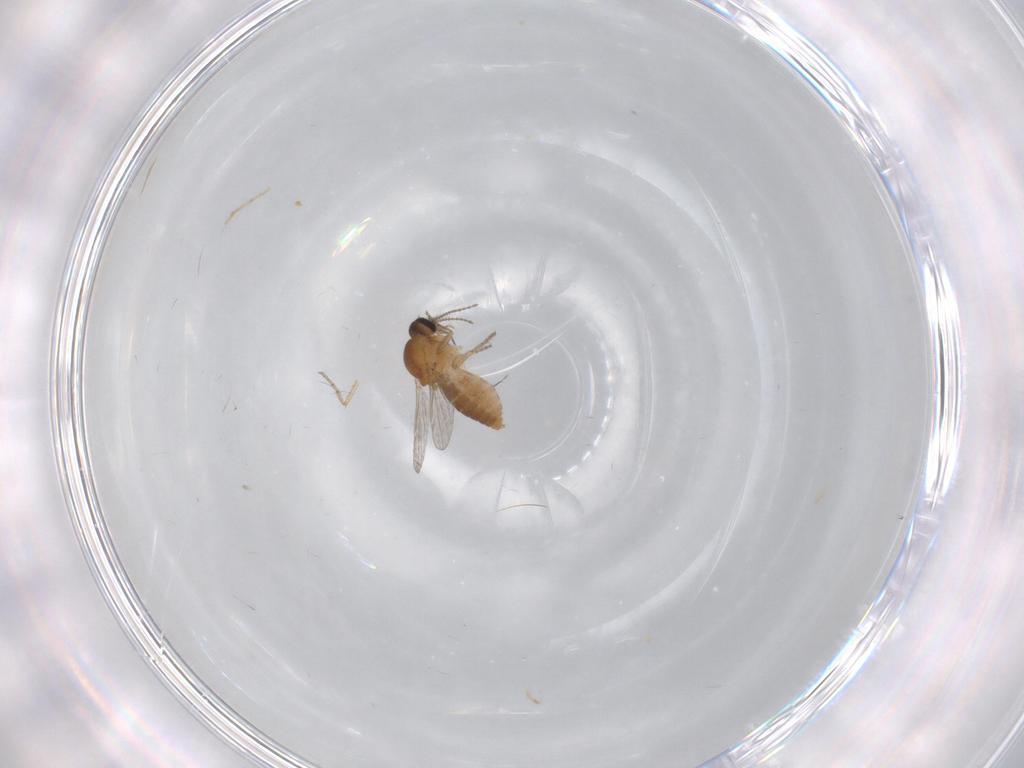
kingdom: Animalia
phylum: Arthropoda
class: Insecta
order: Diptera
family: Ceratopogonidae
